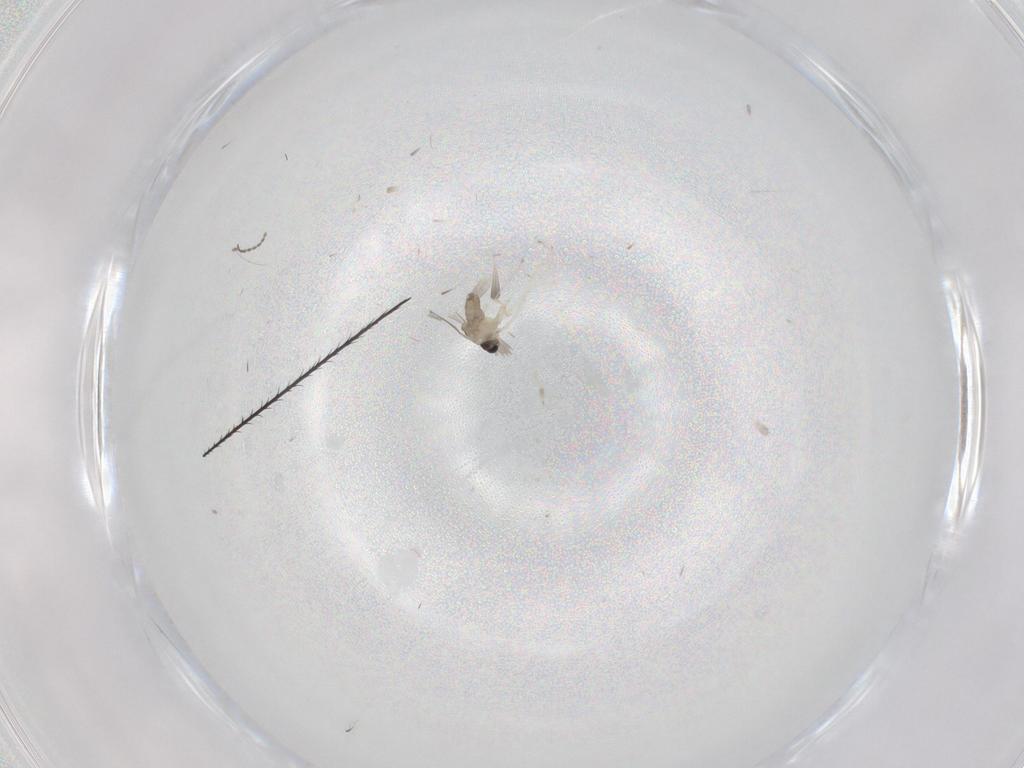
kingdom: Animalia
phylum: Arthropoda
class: Insecta
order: Diptera
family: Cecidomyiidae
